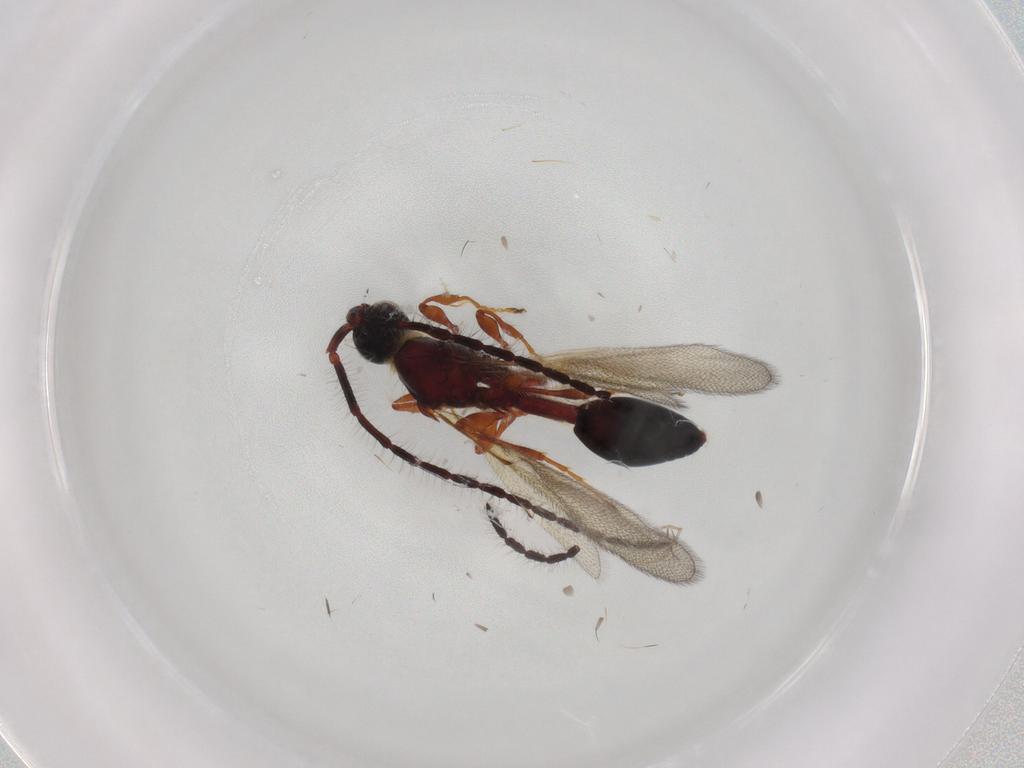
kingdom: Animalia
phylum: Arthropoda
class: Insecta
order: Hymenoptera
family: Diapriidae
